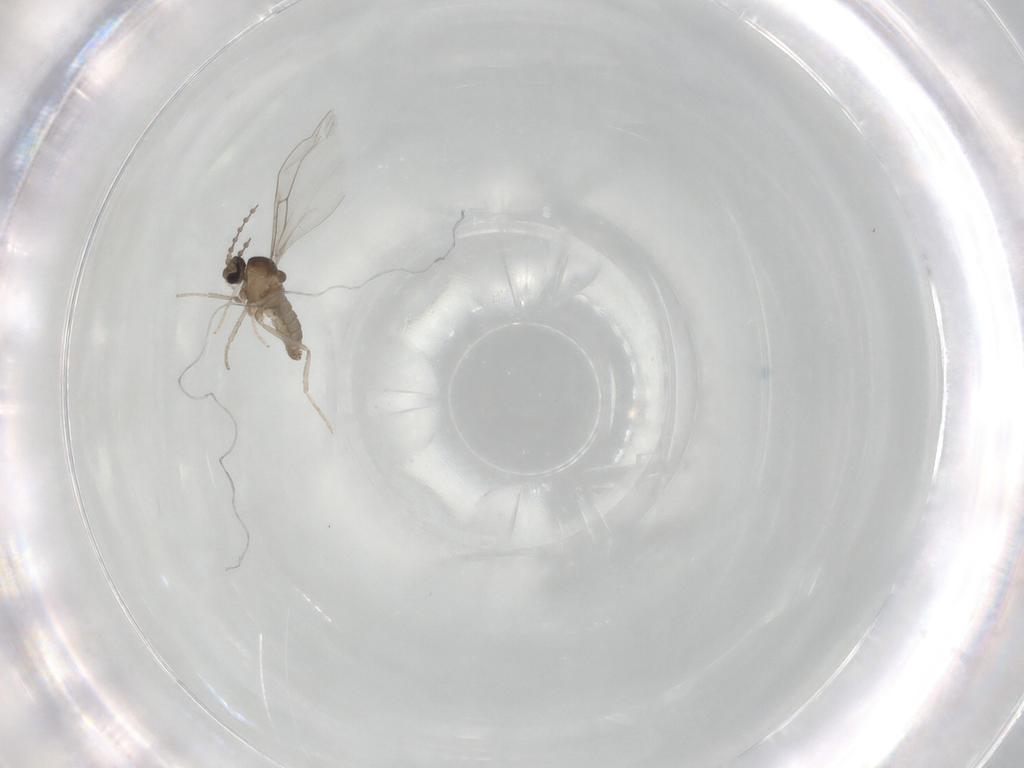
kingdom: Animalia
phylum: Arthropoda
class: Insecta
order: Diptera
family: Cecidomyiidae
